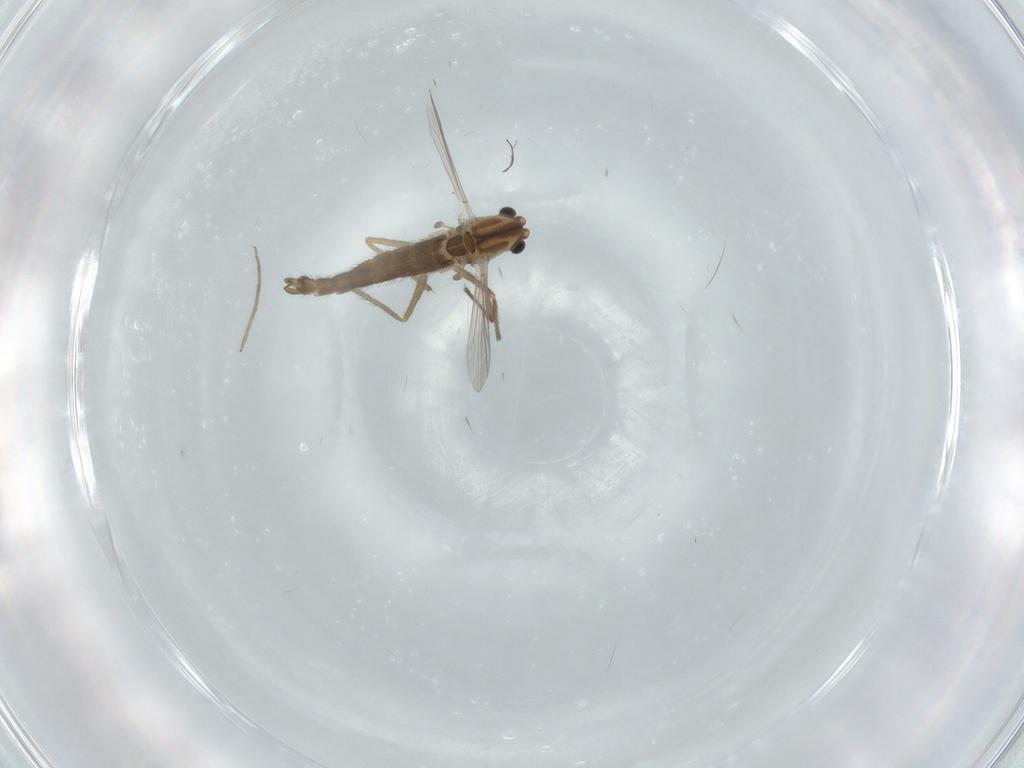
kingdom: Animalia
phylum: Arthropoda
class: Insecta
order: Diptera
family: Chironomidae
